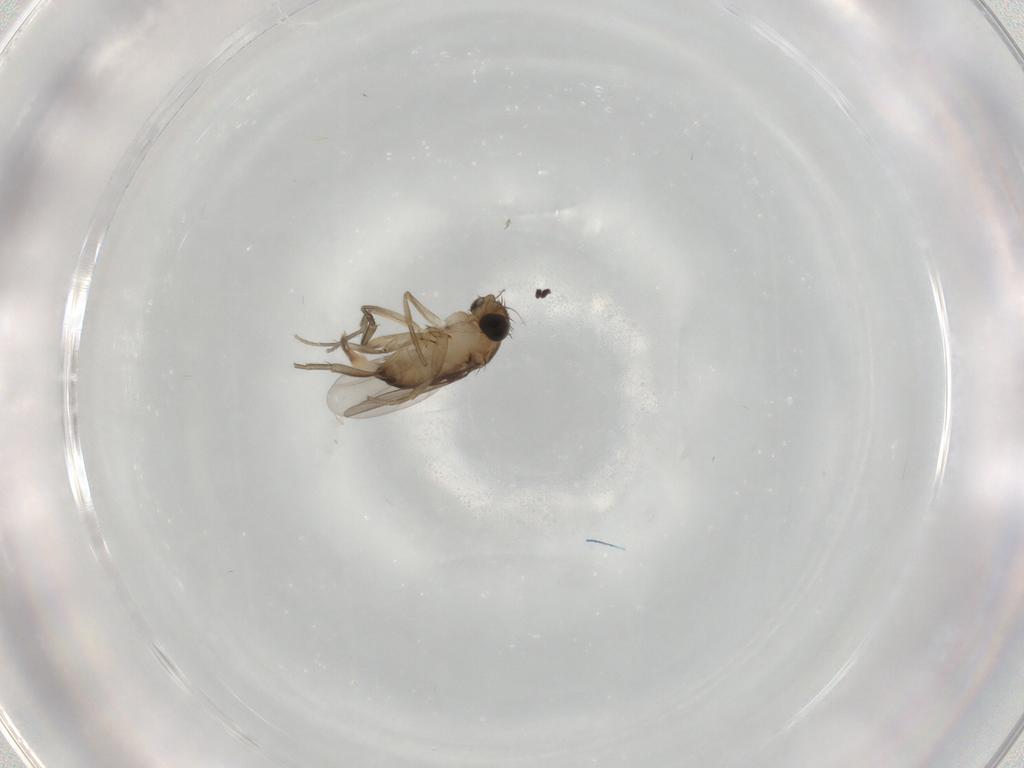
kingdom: Animalia
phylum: Arthropoda
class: Insecta
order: Diptera
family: Phoridae
